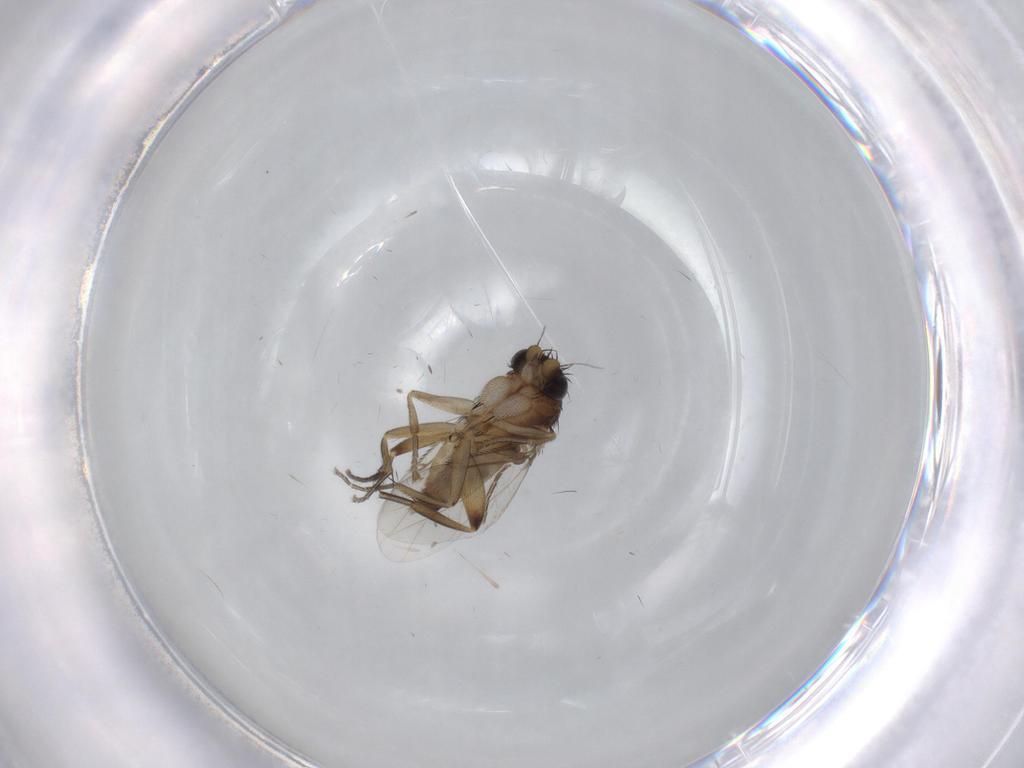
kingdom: Animalia
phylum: Arthropoda
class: Insecta
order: Diptera
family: Phoridae
